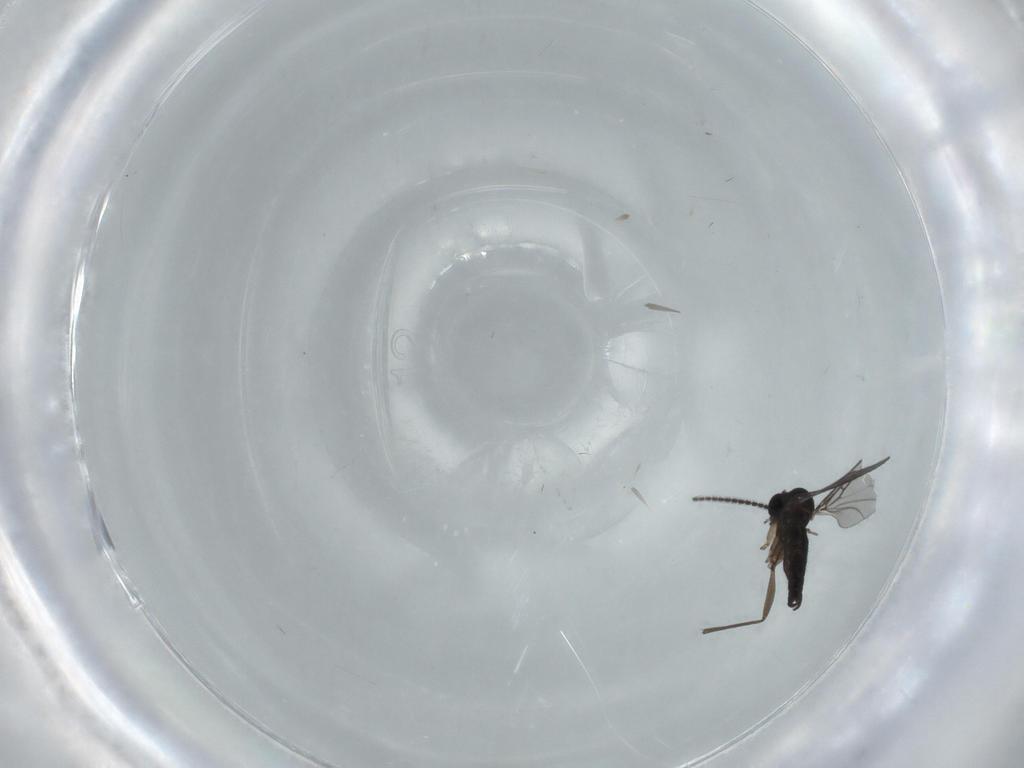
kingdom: Animalia
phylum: Arthropoda
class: Insecta
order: Diptera
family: Sciaridae
